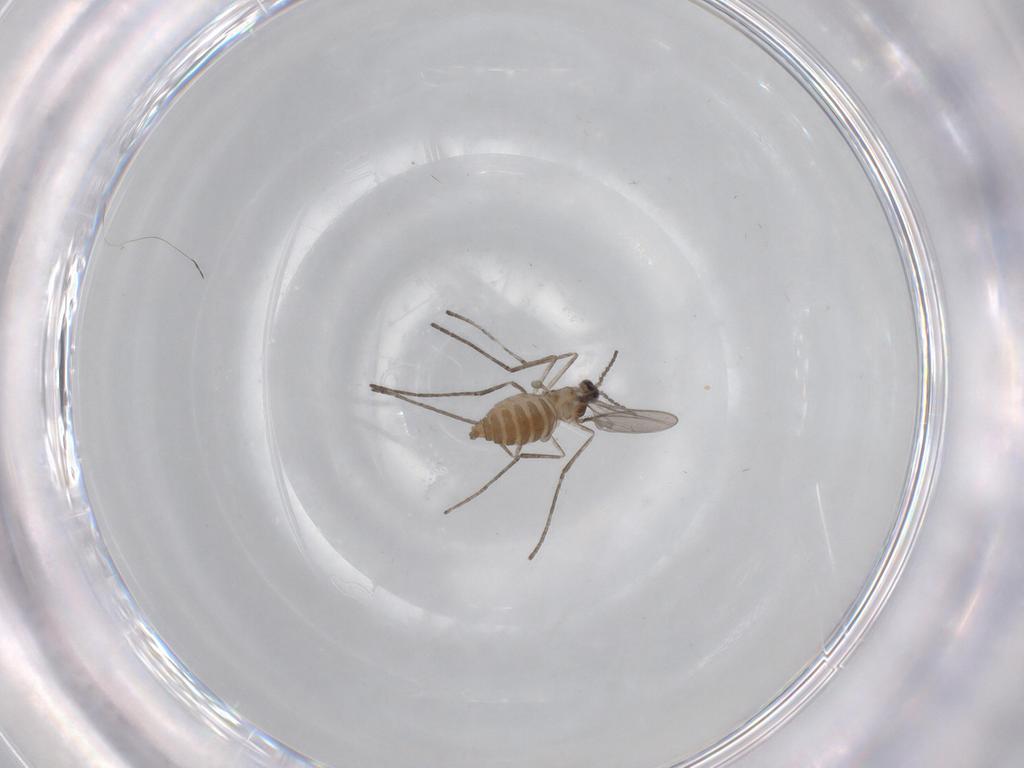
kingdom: Animalia
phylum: Arthropoda
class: Insecta
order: Diptera
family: Cecidomyiidae
